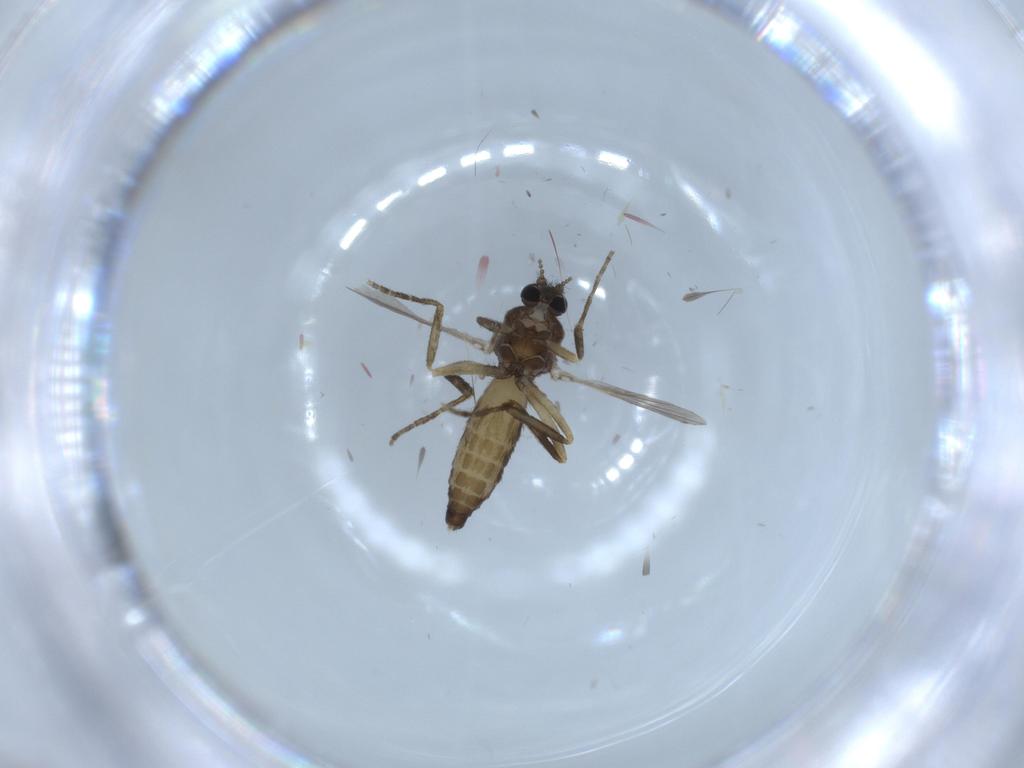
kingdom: Animalia
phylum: Arthropoda
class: Insecta
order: Diptera
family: Ceratopogonidae
